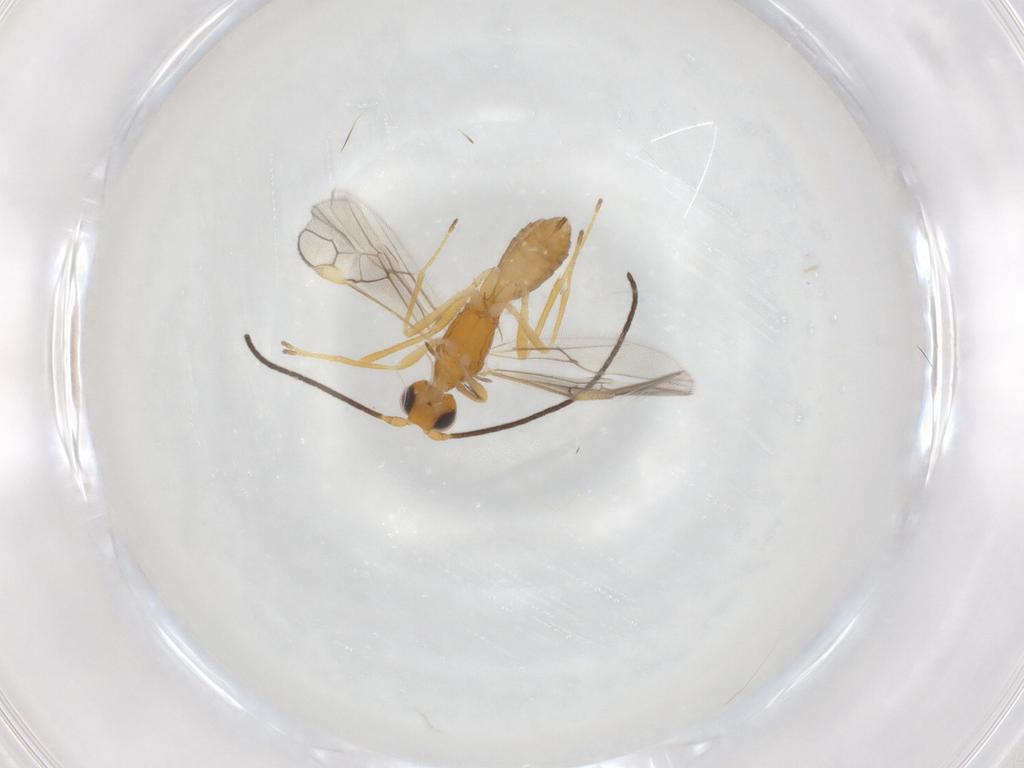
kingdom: Animalia
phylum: Arthropoda
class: Insecta
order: Hymenoptera
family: Braconidae
